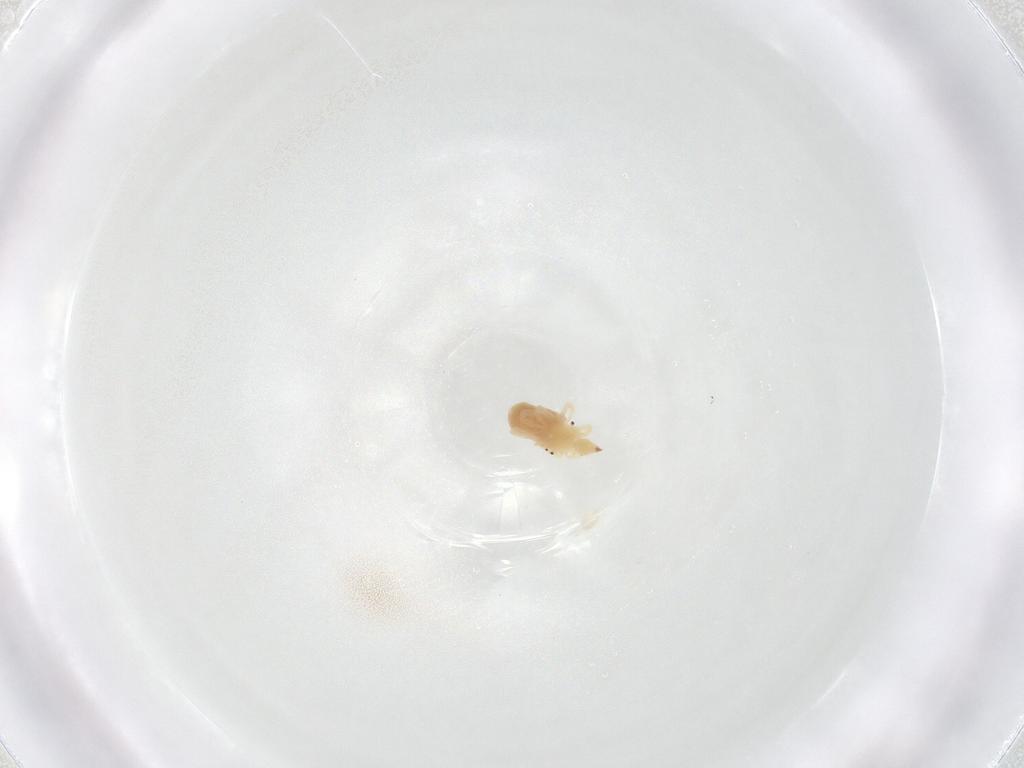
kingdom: Animalia
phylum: Arthropoda
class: Arachnida
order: Trombidiformes
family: Bdellidae
